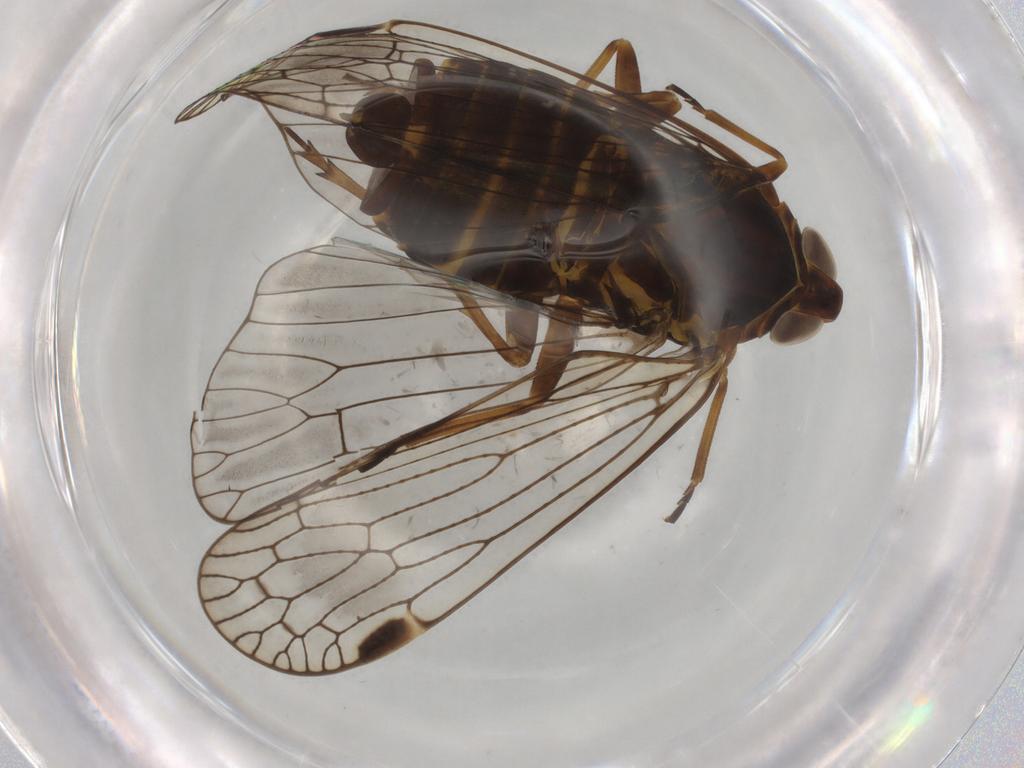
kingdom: Animalia
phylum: Arthropoda
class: Insecta
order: Hemiptera
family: Cixiidae
